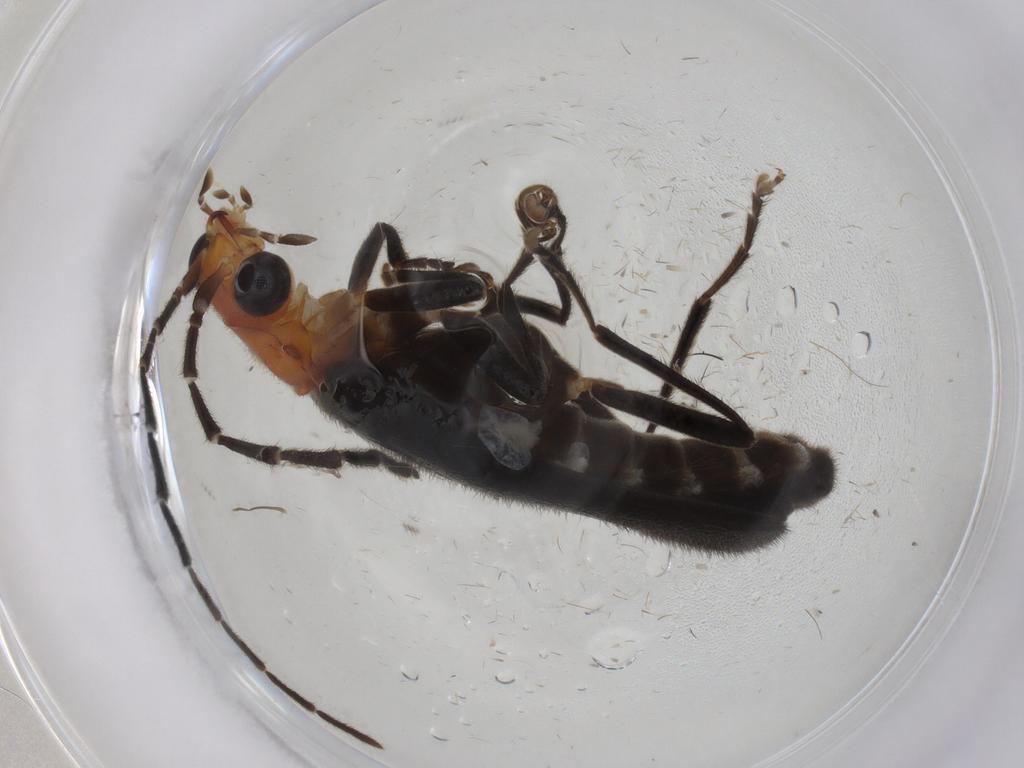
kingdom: Animalia
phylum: Arthropoda
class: Insecta
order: Coleoptera
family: Cantharidae
